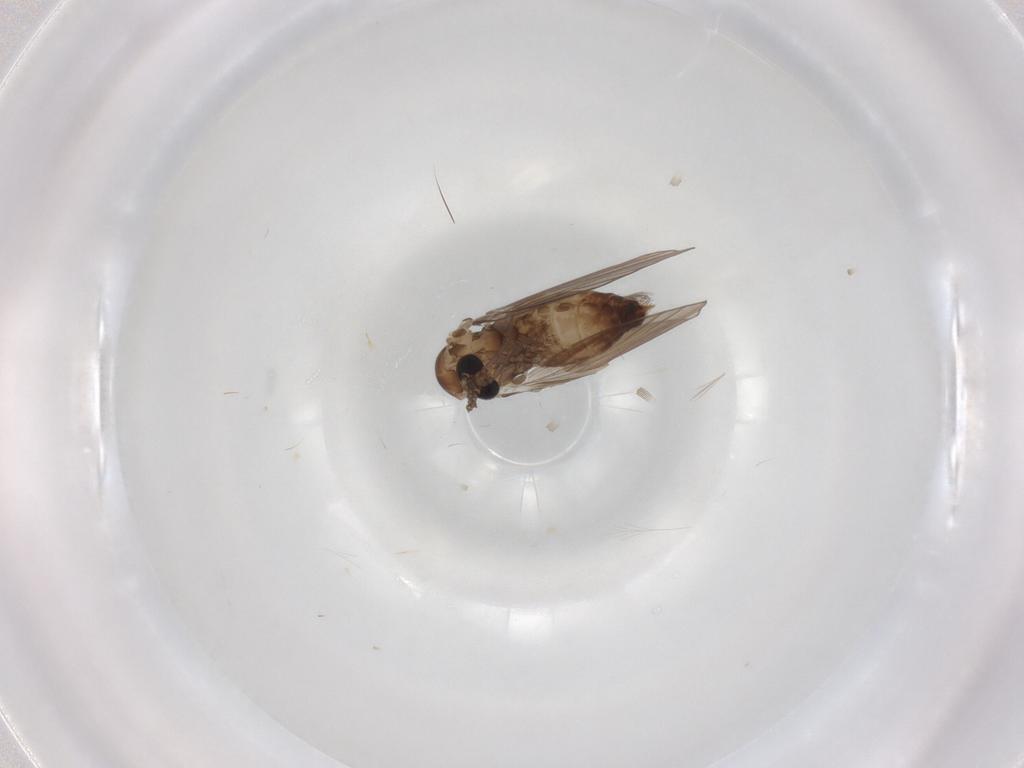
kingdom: Animalia
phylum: Arthropoda
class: Insecta
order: Diptera
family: Psychodidae
